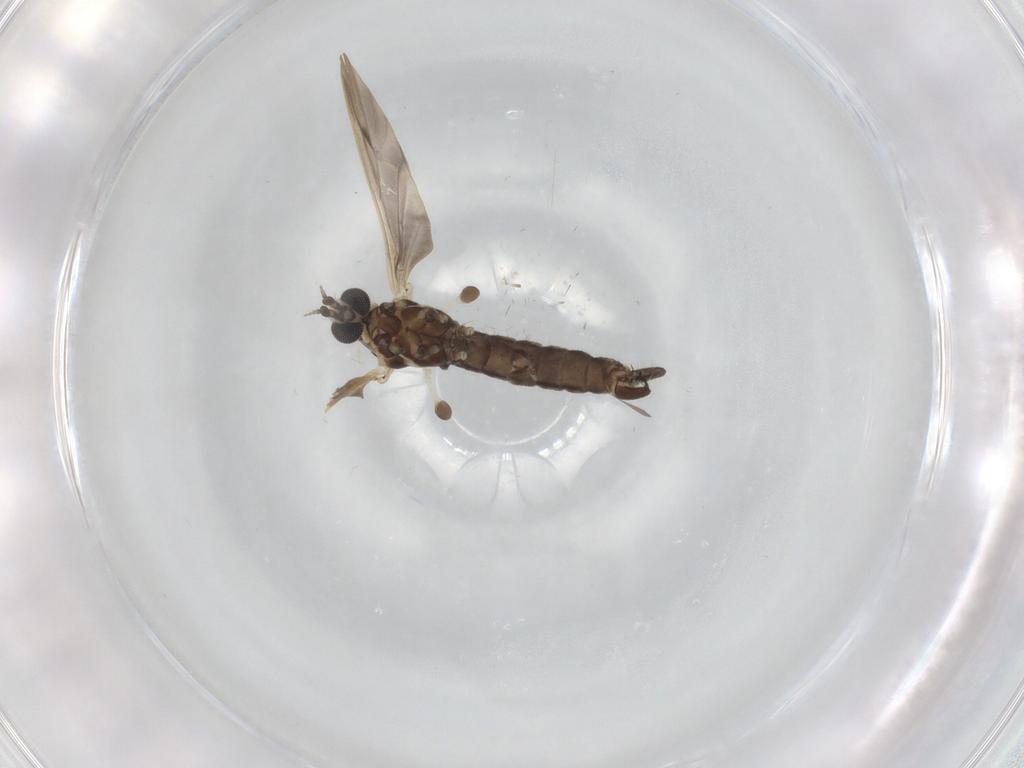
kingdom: Animalia
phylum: Arthropoda
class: Insecta
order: Diptera
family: Limoniidae
